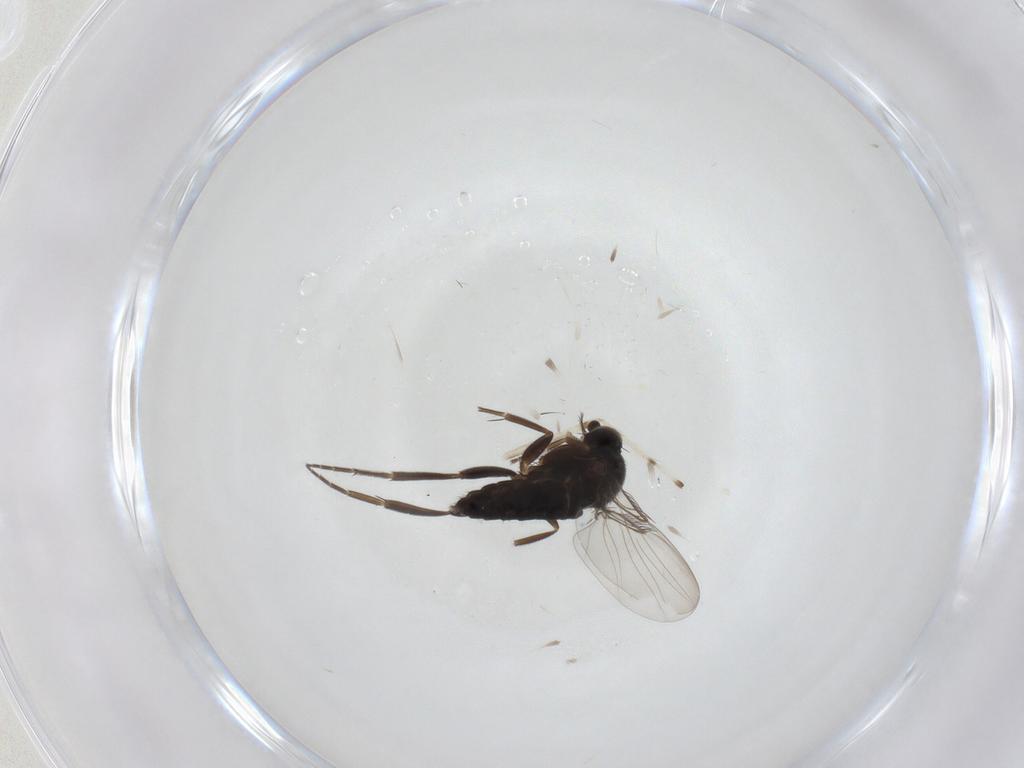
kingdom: Animalia
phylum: Arthropoda
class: Insecta
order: Diptera
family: Phoridae
